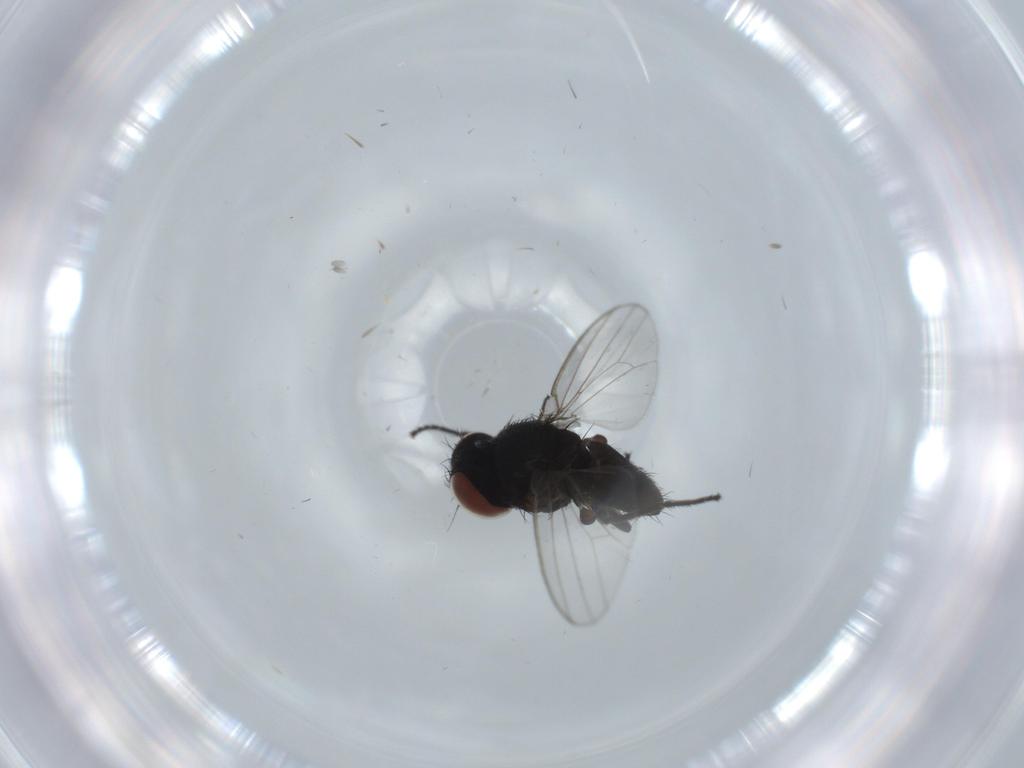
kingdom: Animalia
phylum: Arthropoda
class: Insecta
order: Diptera
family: Milichiidae
